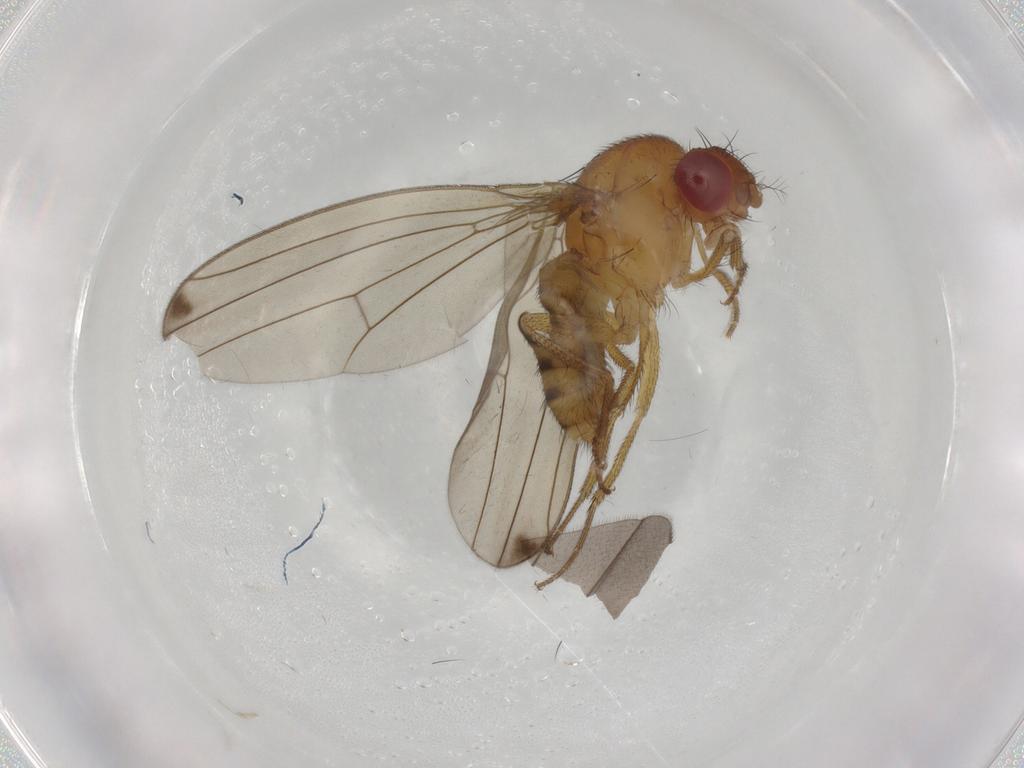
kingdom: Animalia
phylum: Arthropoda
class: Insecta
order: Diptera
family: Drosophilidae
